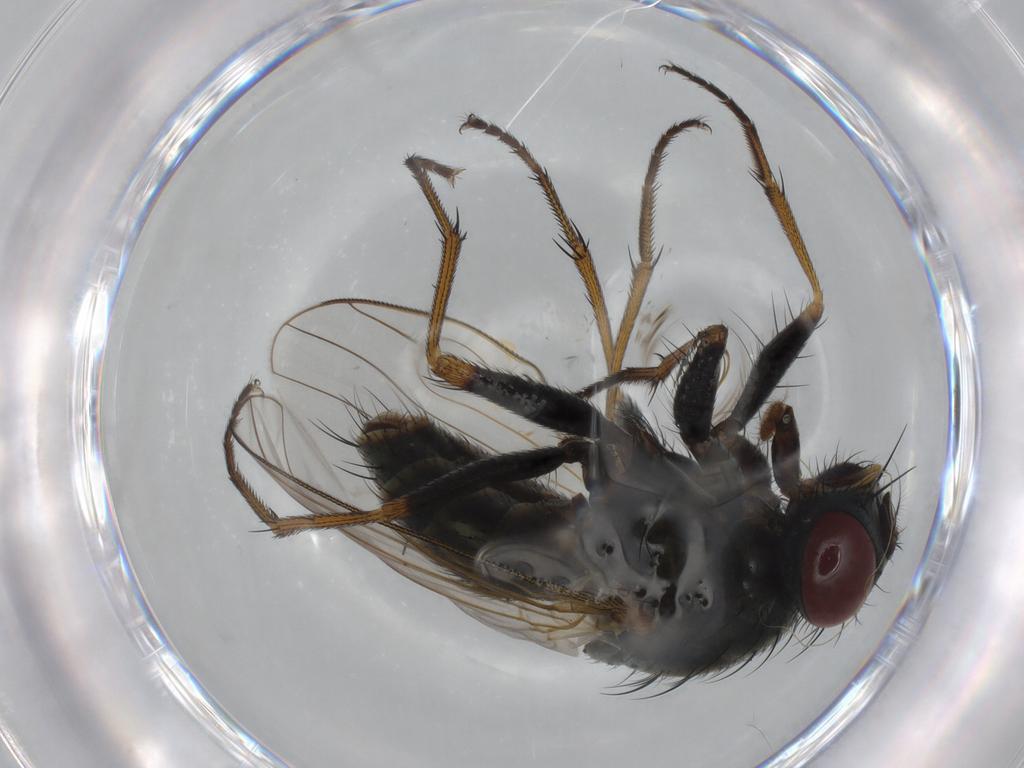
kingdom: Animalia
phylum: Arthropoda
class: Insecta
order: Diptera
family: Muscidae
